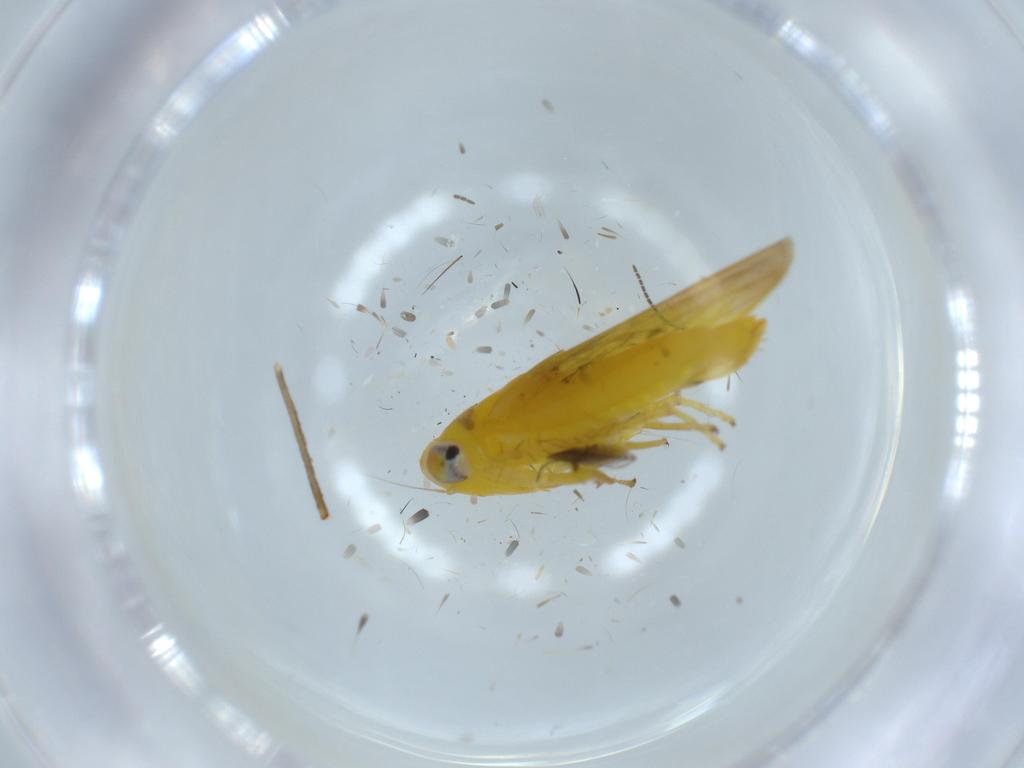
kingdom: Animalia
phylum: Arthropoda
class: Insecta
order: Hemiptera
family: Cicadellidae
